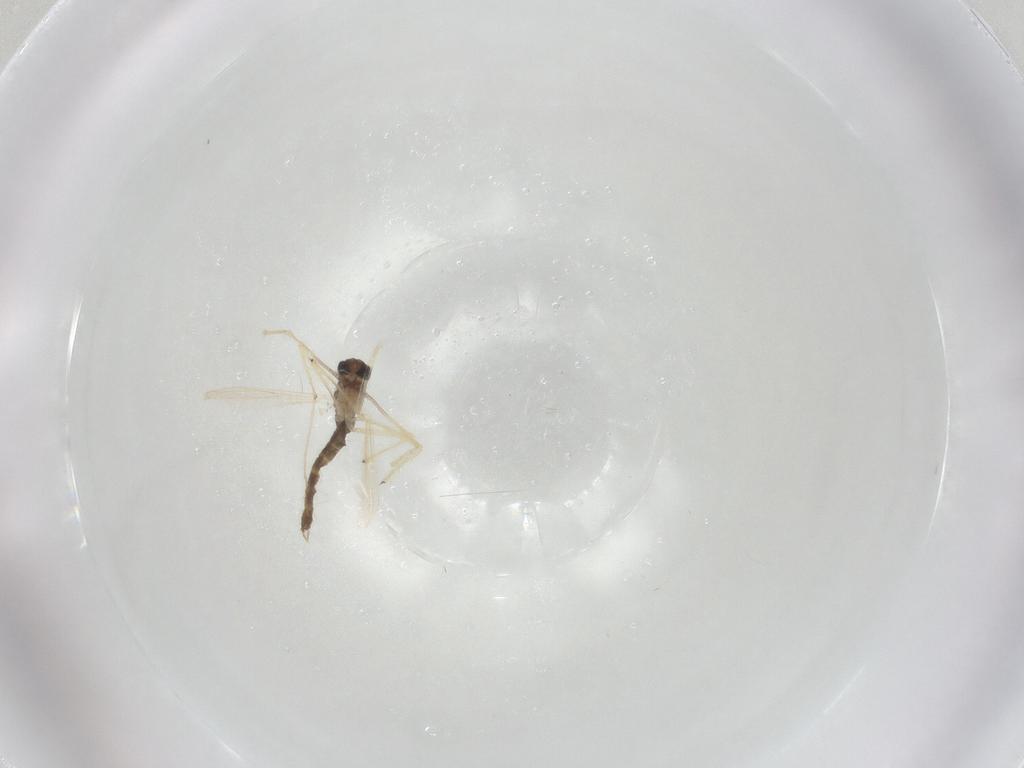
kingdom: Animalia
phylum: Arthropoda
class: Insecta
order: Diptera
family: Chironomidae
